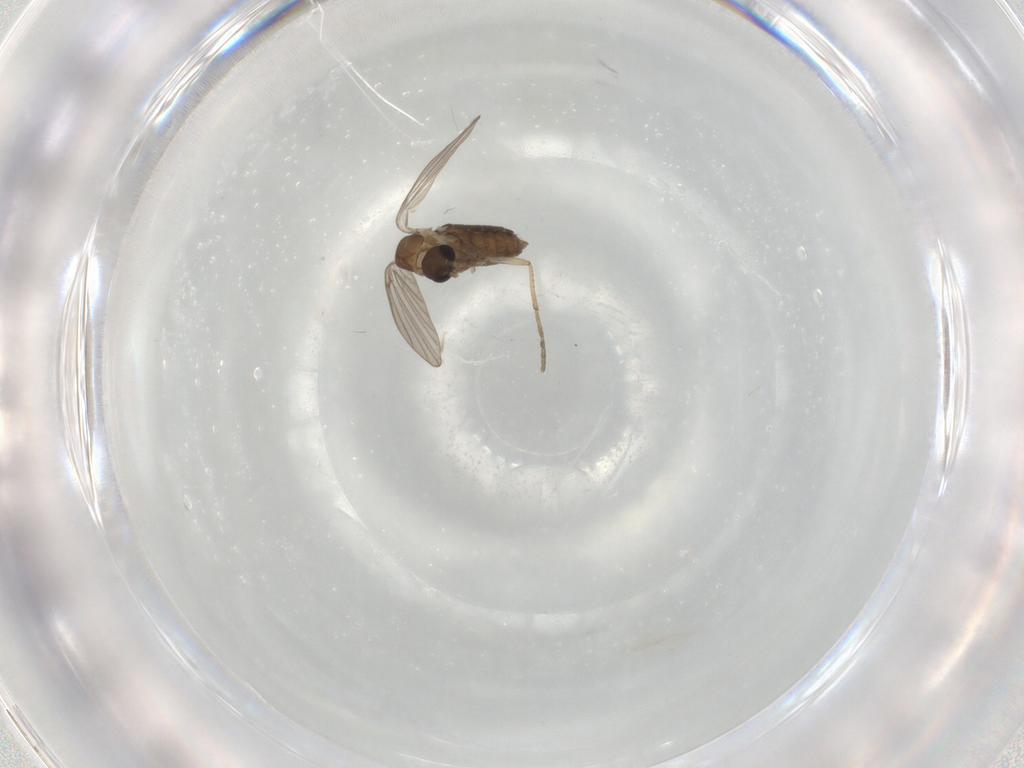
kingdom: Animalia
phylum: Arthropoda
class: Insecta
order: Diptera
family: Cecidomyiidae
